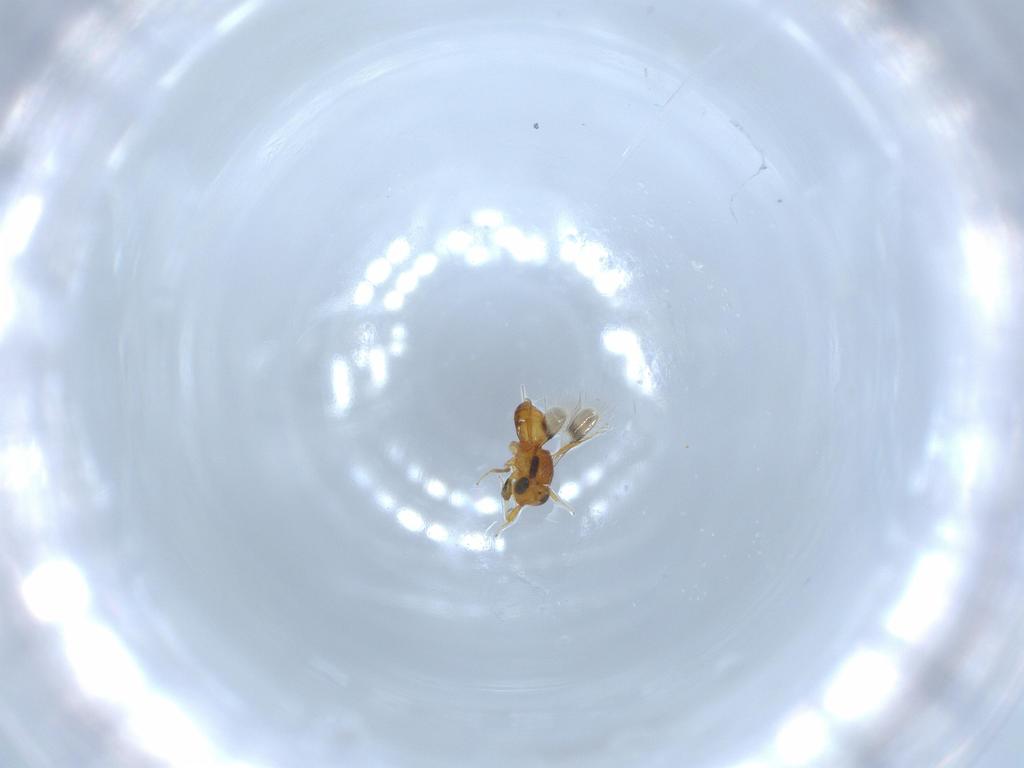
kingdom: Animalia
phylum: Arthropoda
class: Insecta
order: Hymenoptera
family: Scelionidae
